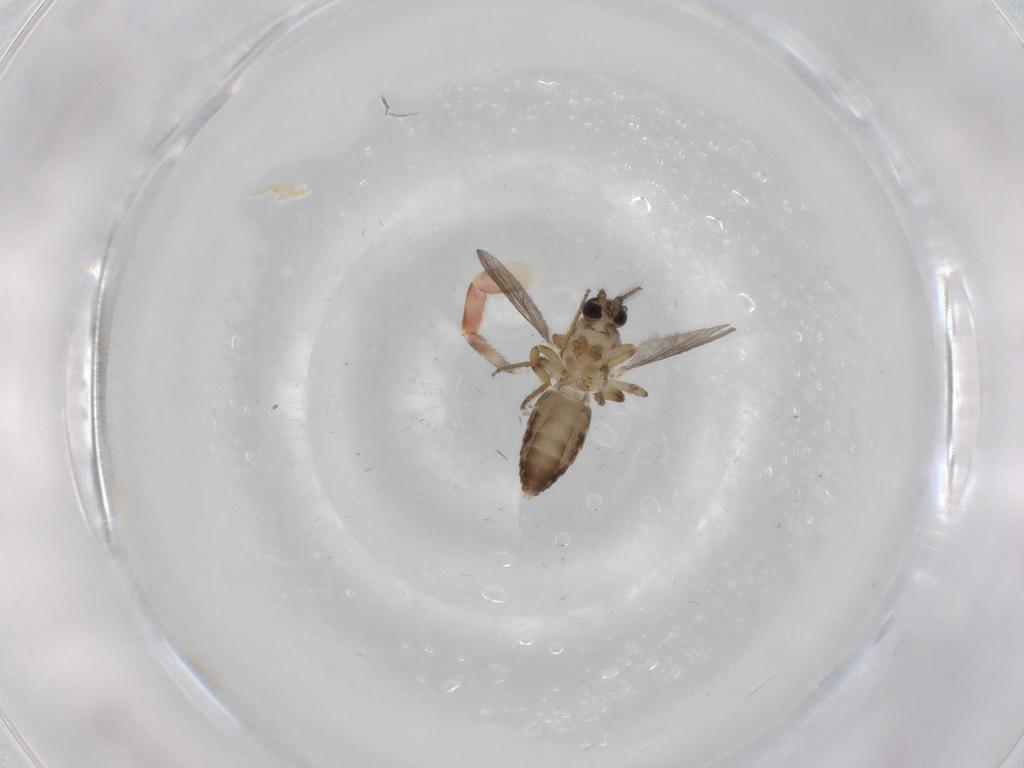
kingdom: Animalia
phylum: Arthropoda
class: Insecta
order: Diptera
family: Ceratopogonidae
